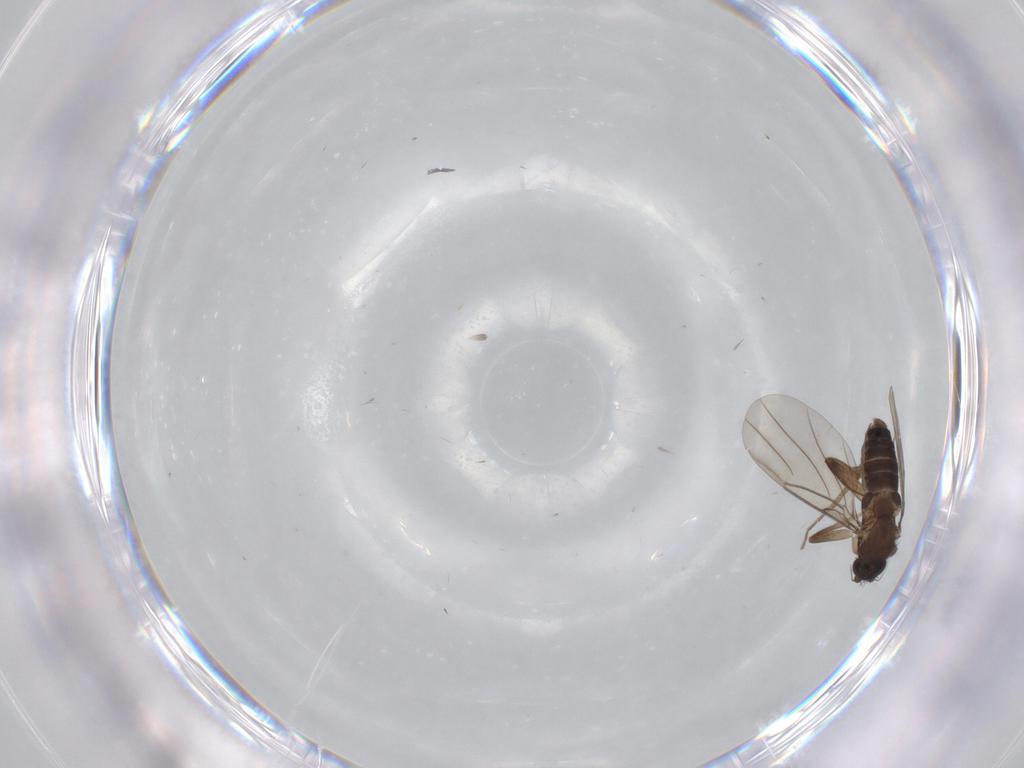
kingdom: Animalia
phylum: Arthropoda
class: Insecta
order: Diptera
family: Phoridae
